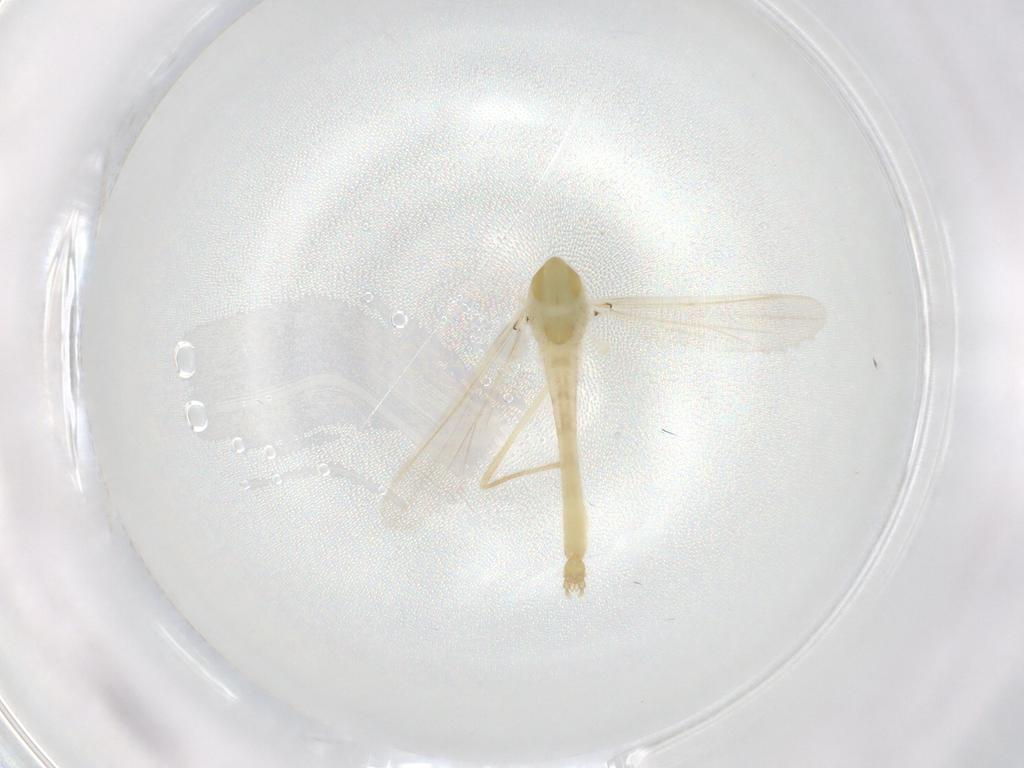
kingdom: Animalia
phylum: Arthropoda
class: Insecta
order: Diptera
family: Chironomidae
